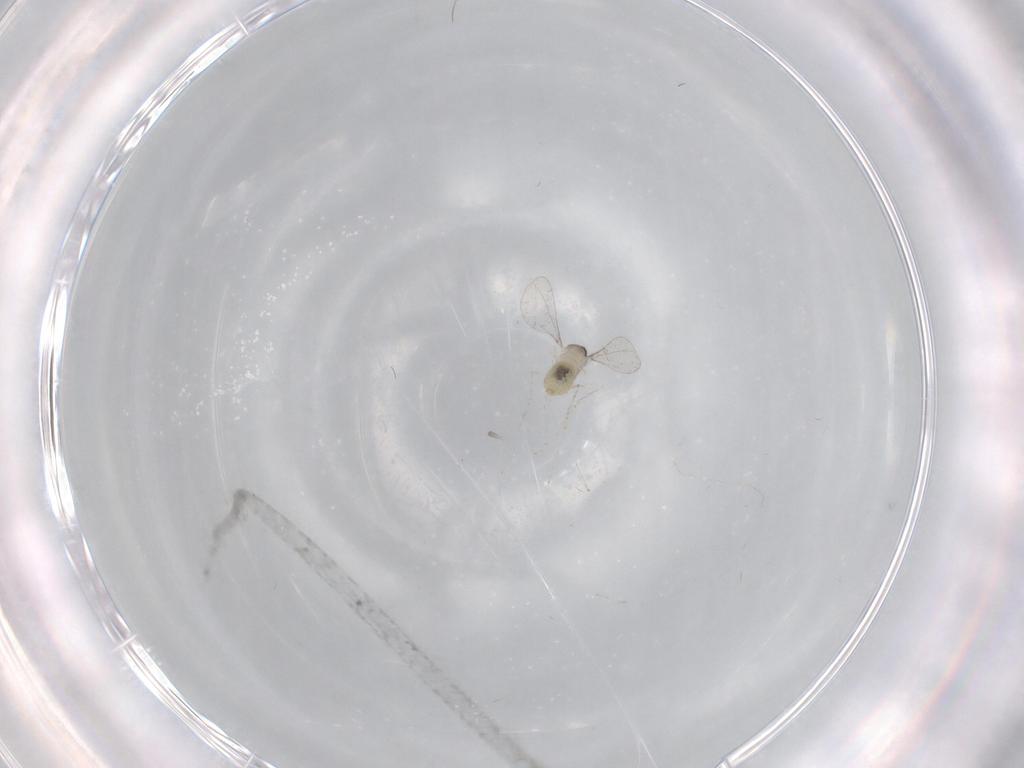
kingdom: Animalia
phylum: Arthropoda
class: Insecta
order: Diptera
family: Cecidomyiidae
